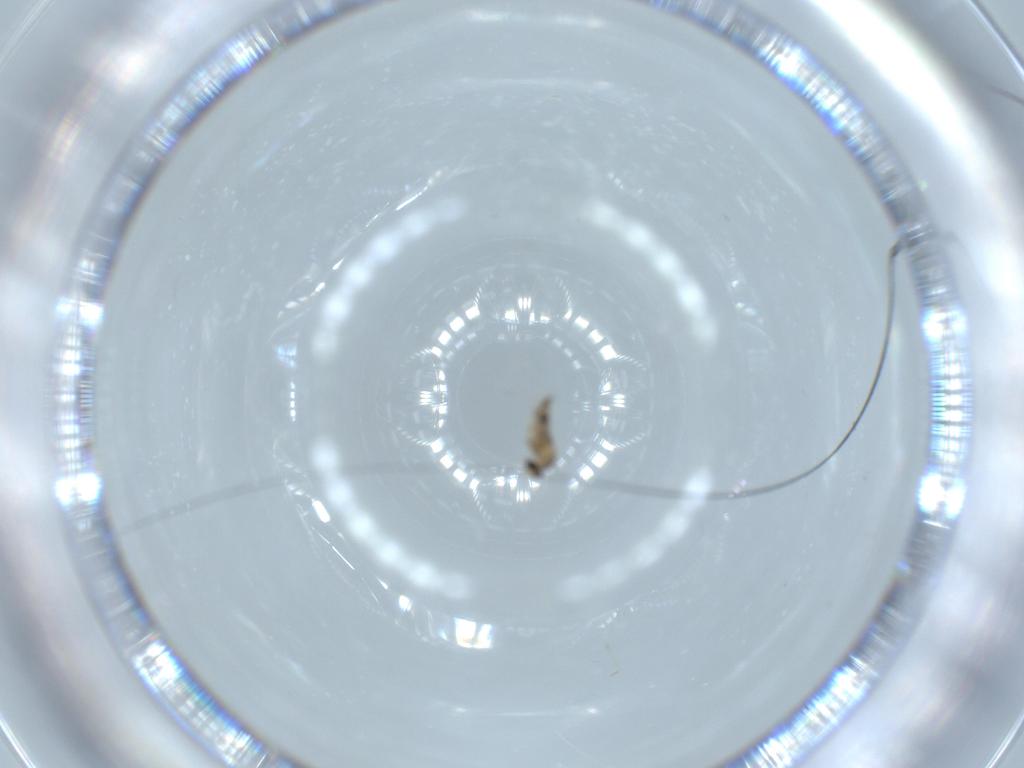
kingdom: Animalia
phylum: Arthropoda
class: Insecta
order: Diptera
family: Cecidomyiidae
